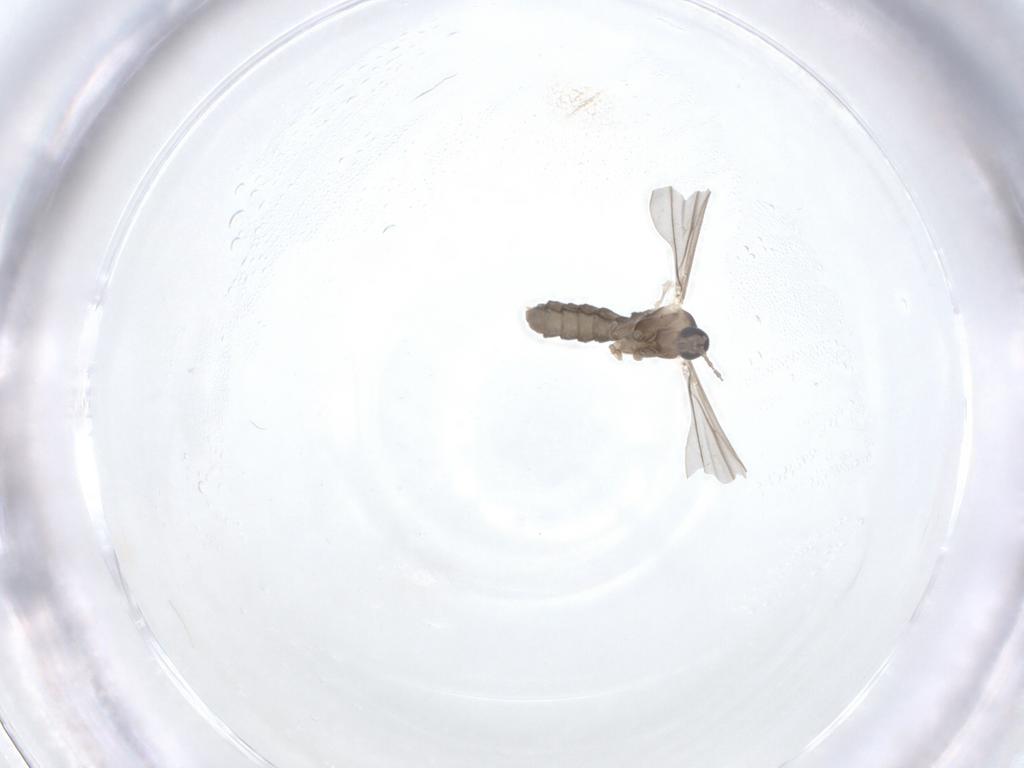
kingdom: Animalia
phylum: Arthropoda
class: Insecta
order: Diptera
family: Cecidomyiidae
